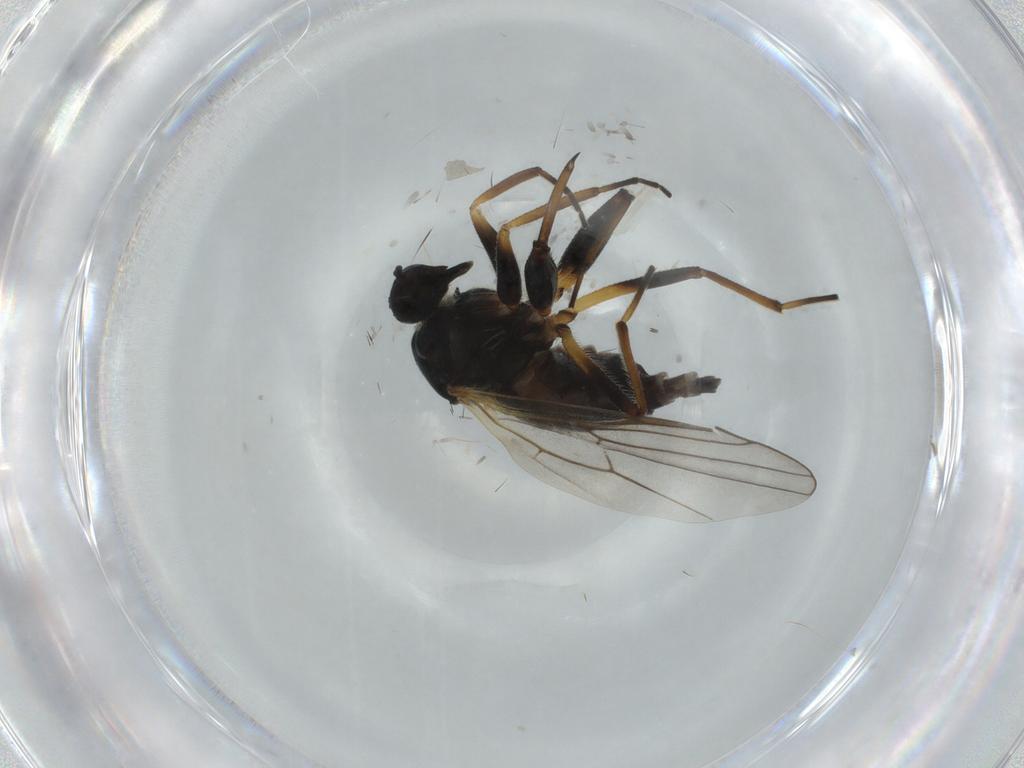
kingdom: Animalia
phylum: Arthropoda
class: Insecta
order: Diptera
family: Hybotidae
